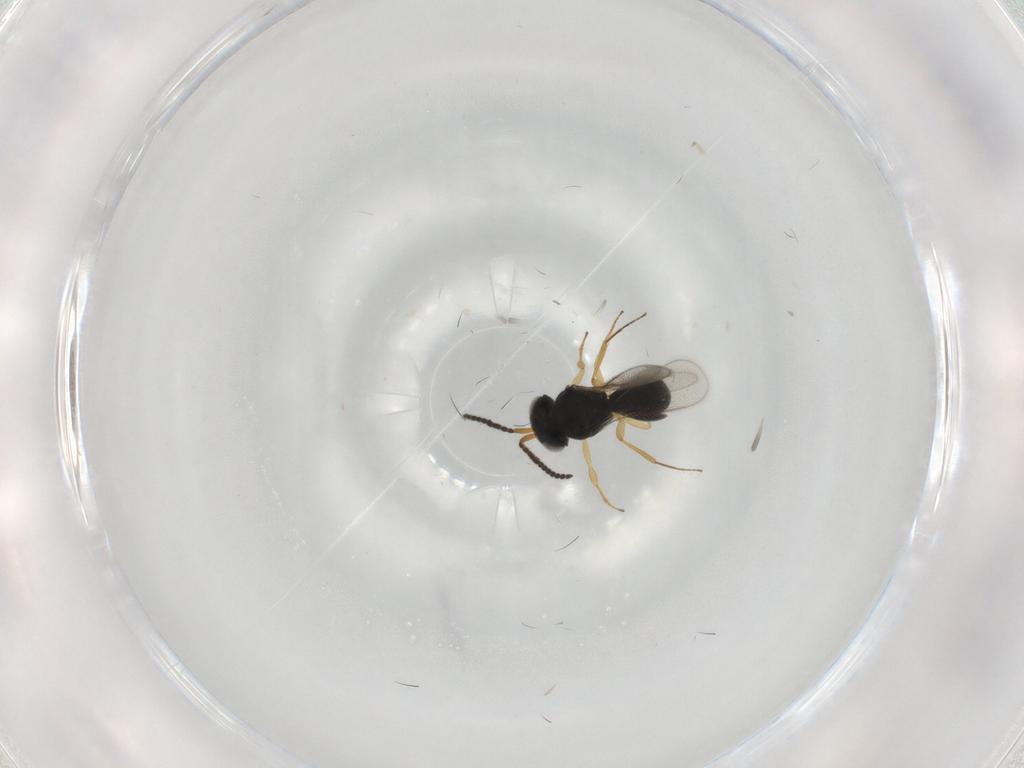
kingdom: Animalia
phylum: Arthropoda
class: Insecta
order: Hymenoptera
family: Scelionidae
